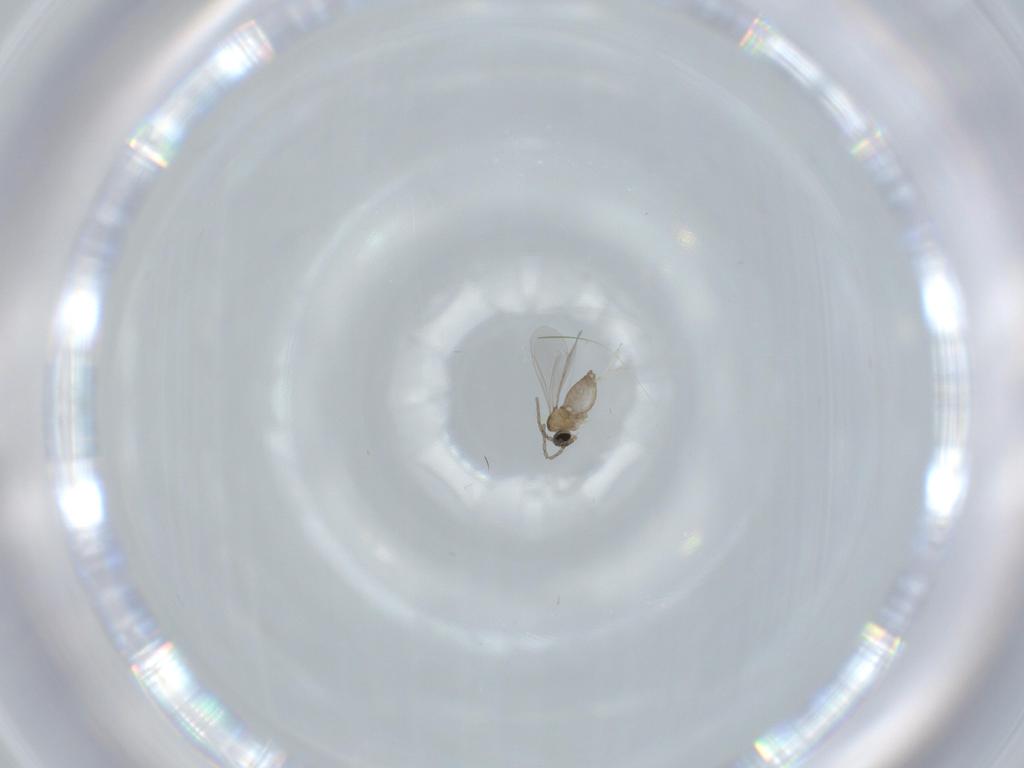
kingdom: Animalia
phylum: Arthropoda
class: Insecta
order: Diptera
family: Cecidomyiidae
